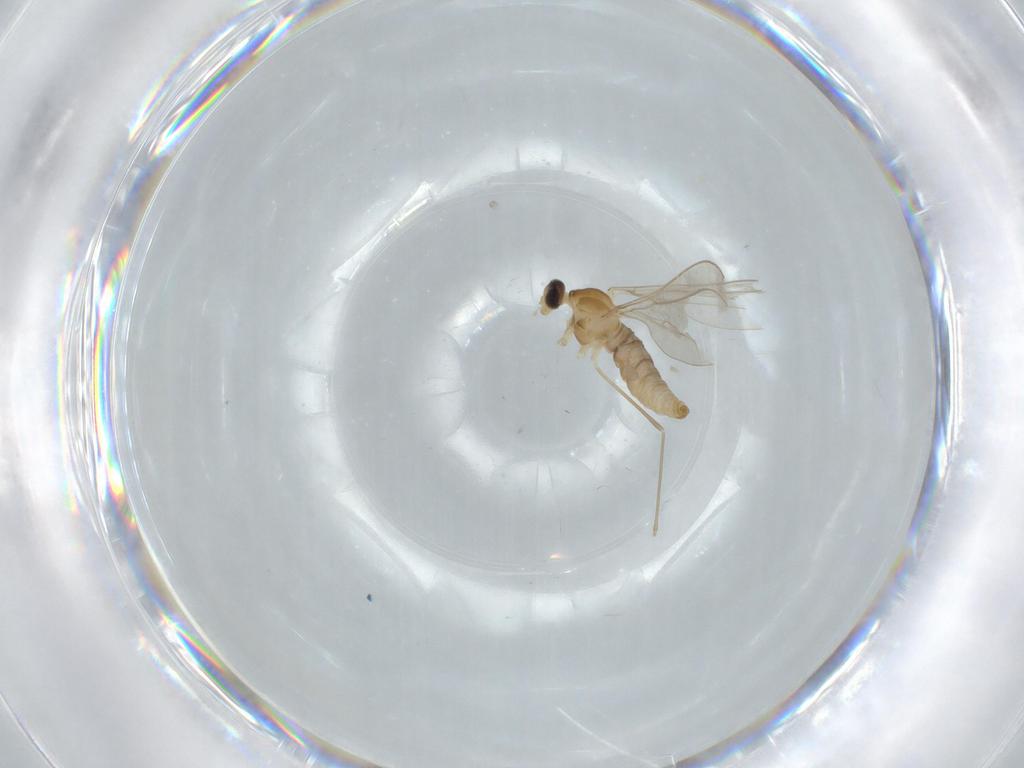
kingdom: Animalia
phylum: Arthropoda
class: Insecta
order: Diptera
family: Cecidomyiidae
